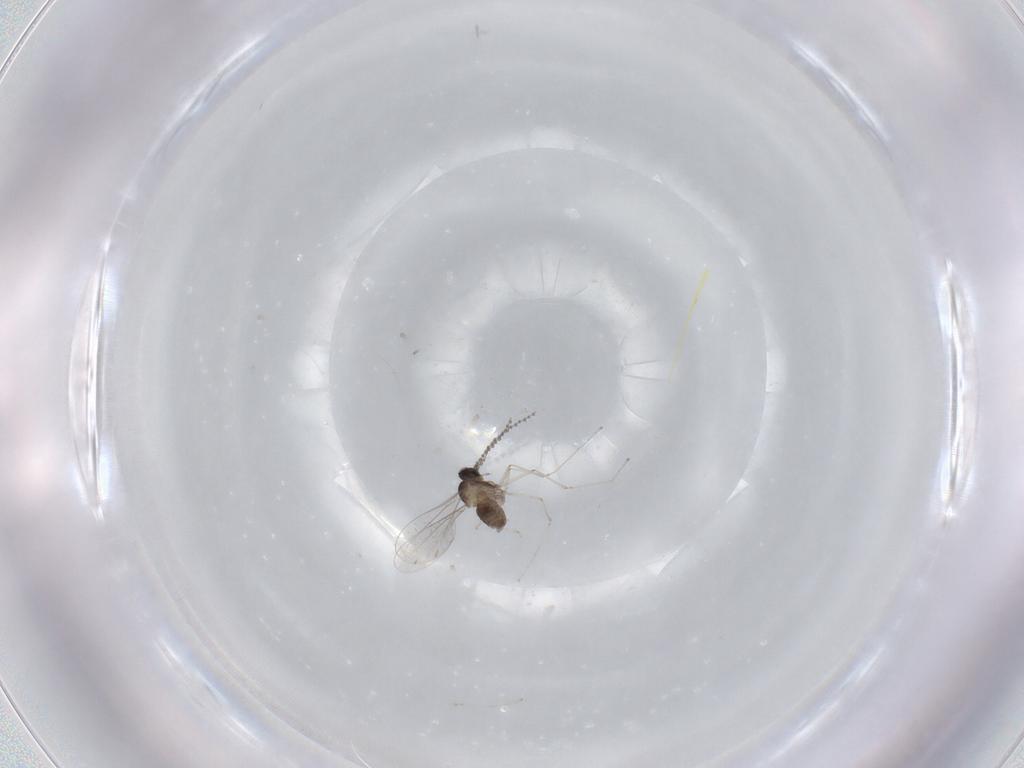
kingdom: Animalia
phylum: Arthropoda
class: Insecta
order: Diptera
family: Cecidomyiidae
